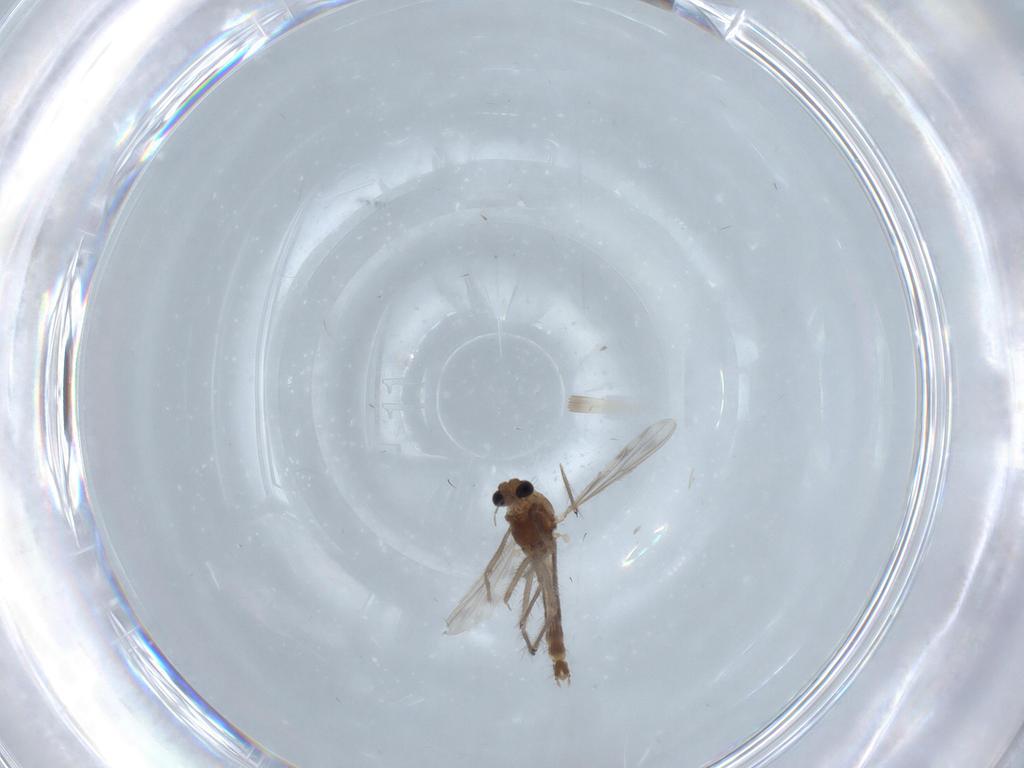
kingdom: Animalia
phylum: Arthropoda
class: Insecta
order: Diptera
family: Chironomidae
